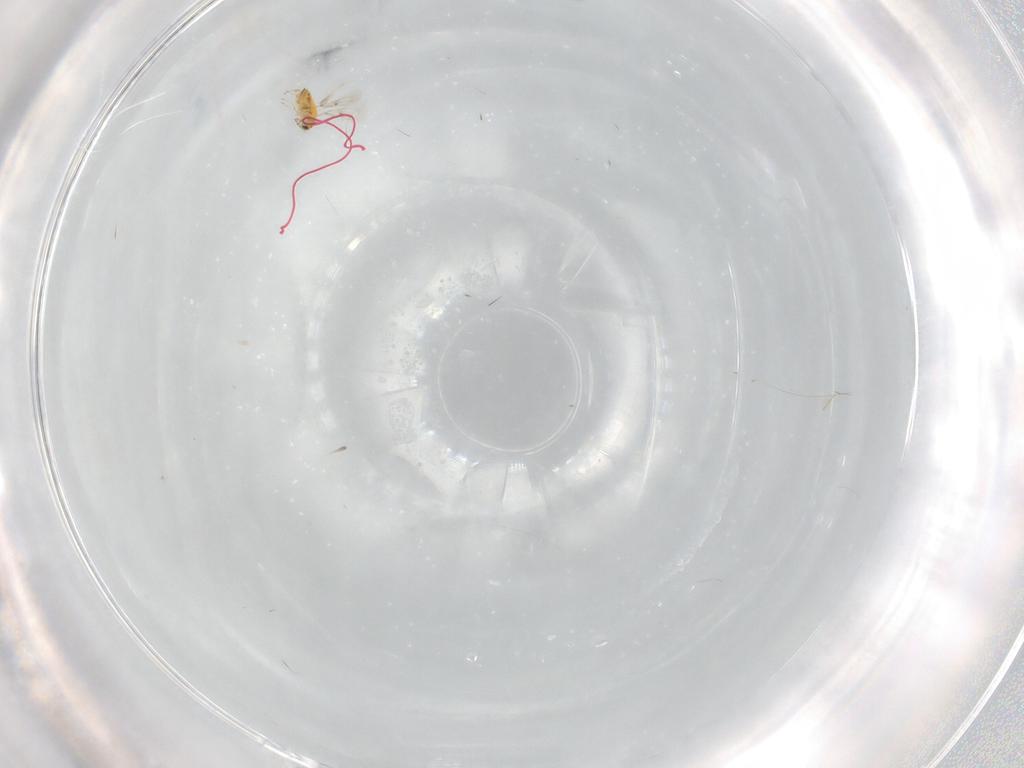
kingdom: Animalia
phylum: Arthropoda
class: Insecta
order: Hymenoptera
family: Trichogrammatidae
